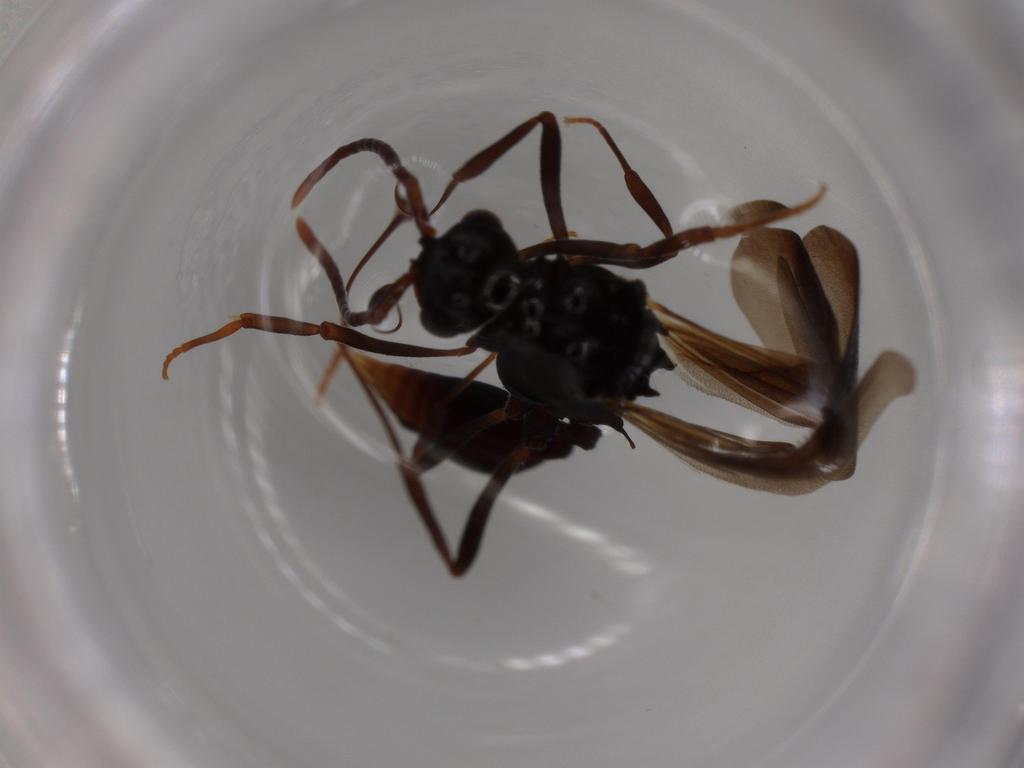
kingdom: Animalia
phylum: Arthropoda
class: Insecta
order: Hymenoptera
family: Formicidae
